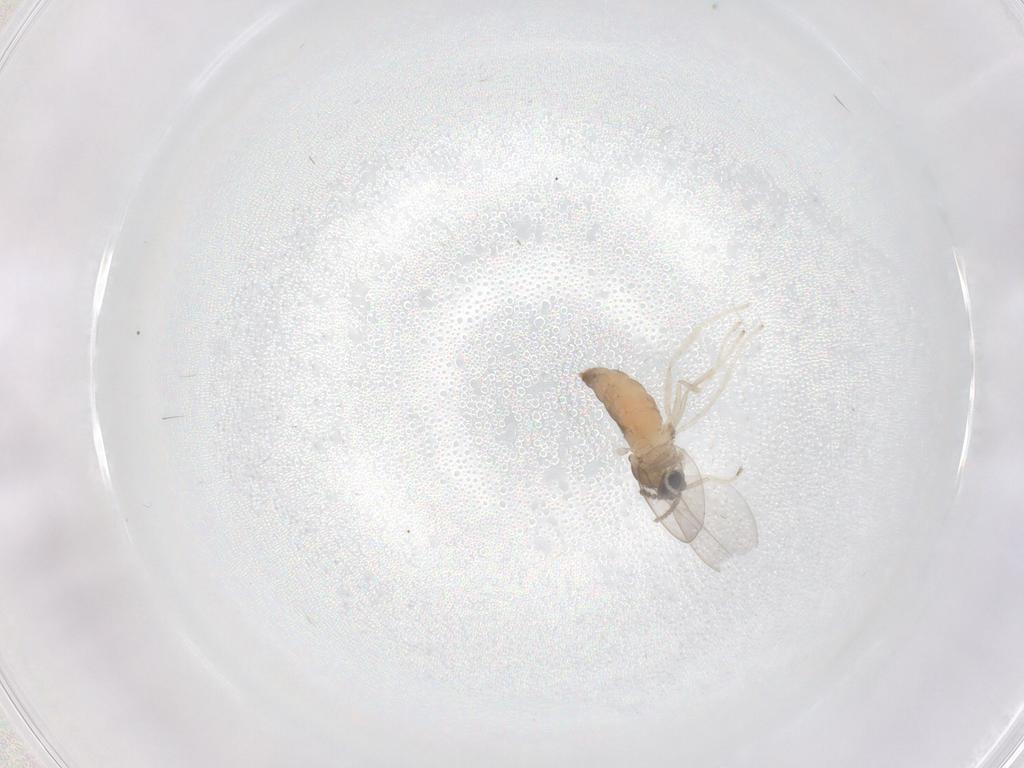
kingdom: Animalia
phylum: Arthropoda
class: Insecta
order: Diptera
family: Cecidomyiidae
